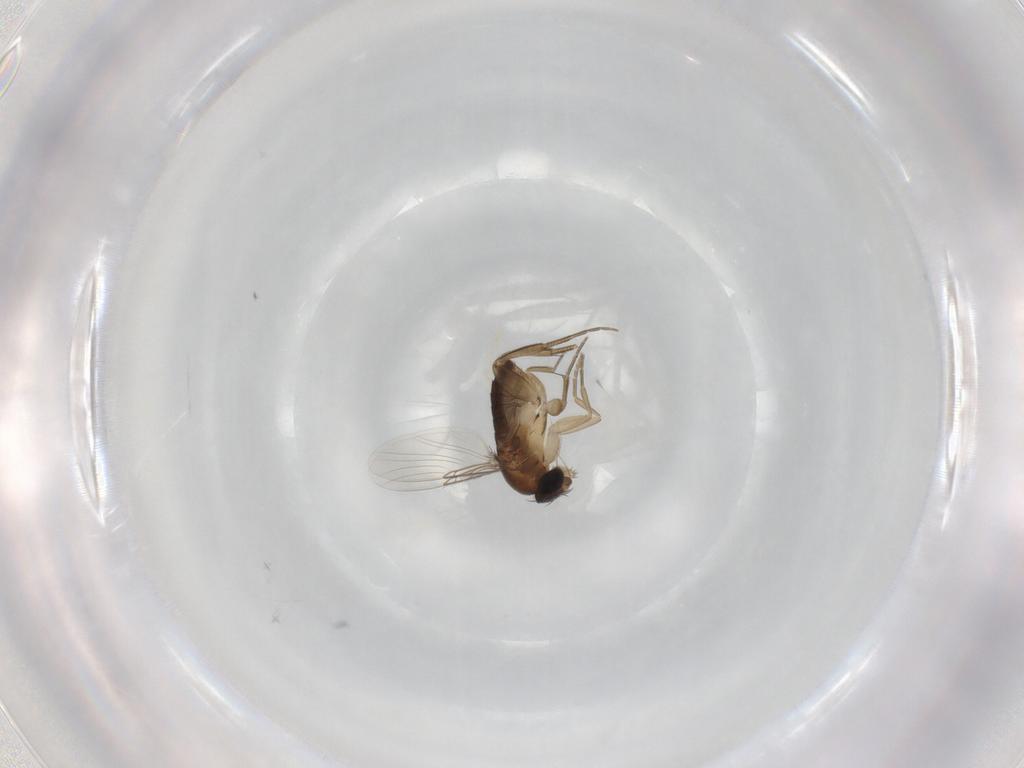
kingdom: Animalia
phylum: Arthropoda
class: Insecta
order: Diptera
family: Phoridae
